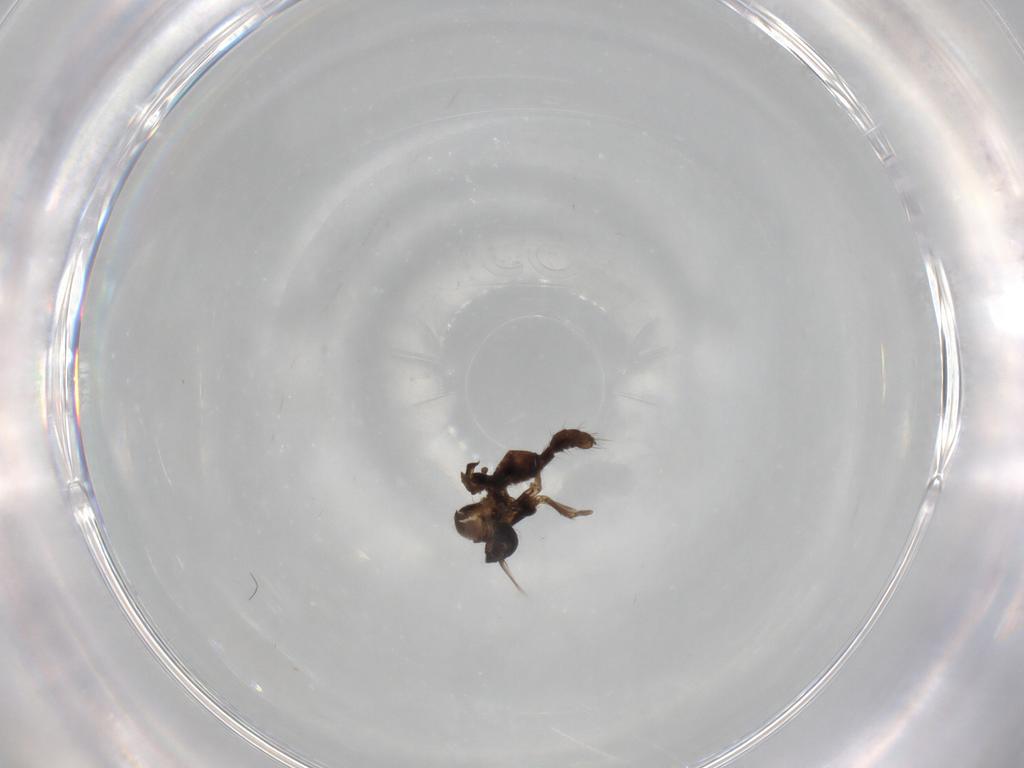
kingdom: Animalia
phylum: Arthropoda
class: Insecta
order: Diptera
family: Ceratopogonidae
